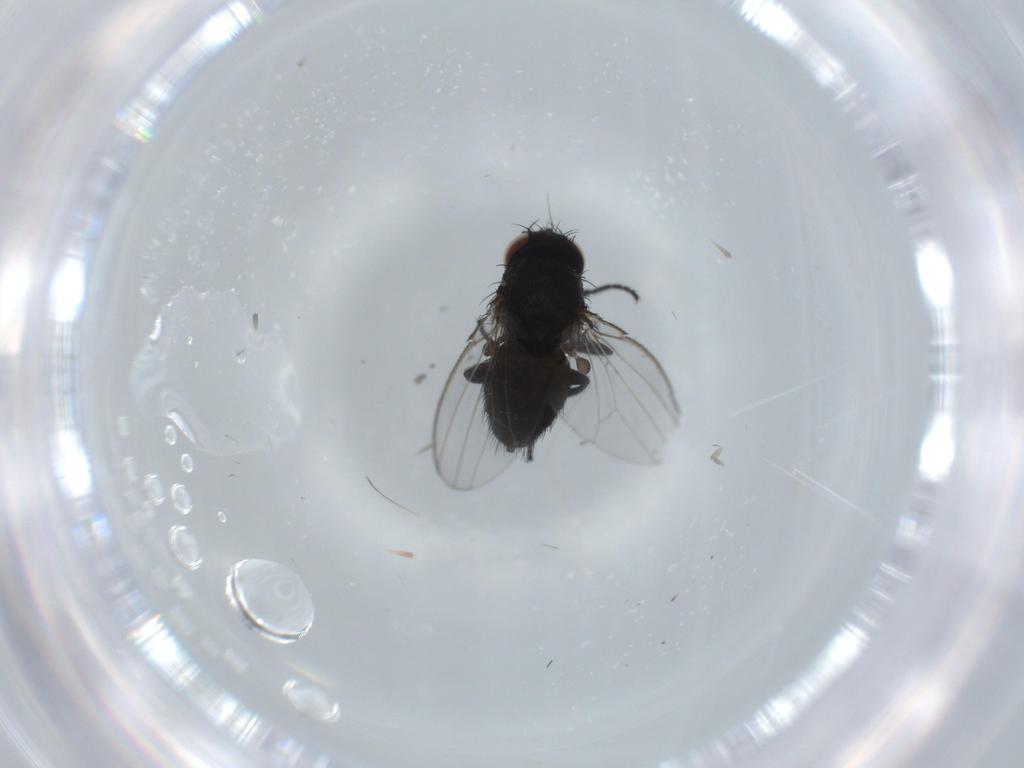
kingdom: Animalia
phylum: Arthropoda
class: Insecta
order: Diptera
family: Milichiidae
